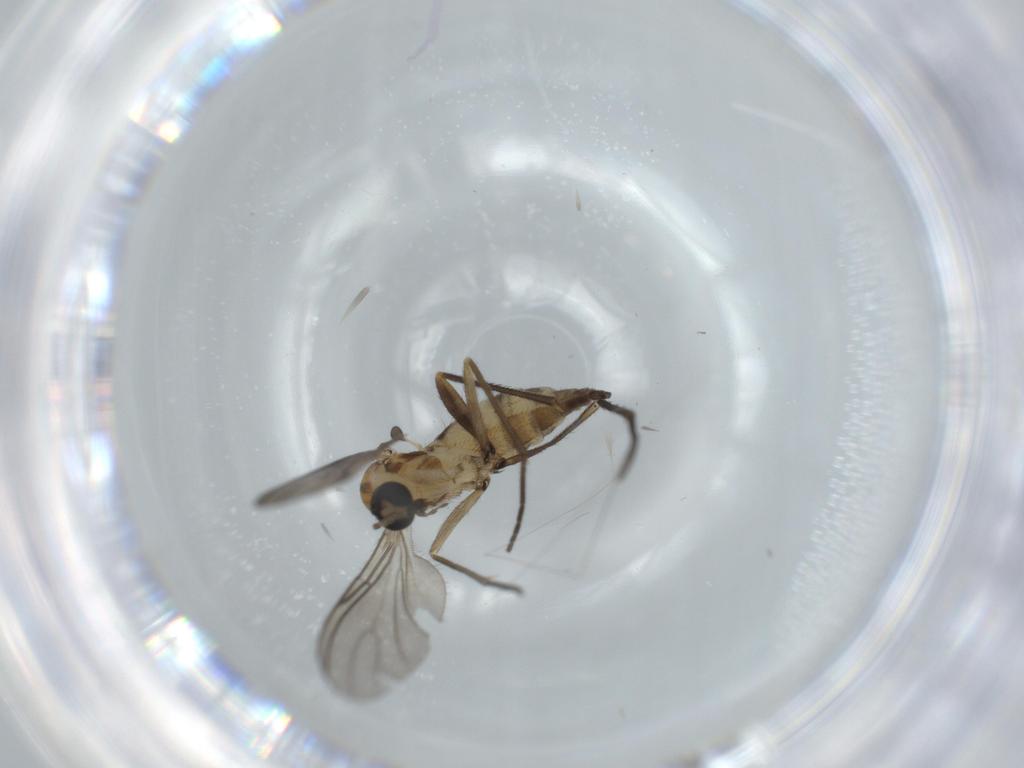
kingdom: Animalia
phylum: Arthropoda
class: Insecta
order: Diptera
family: Sciaridae
